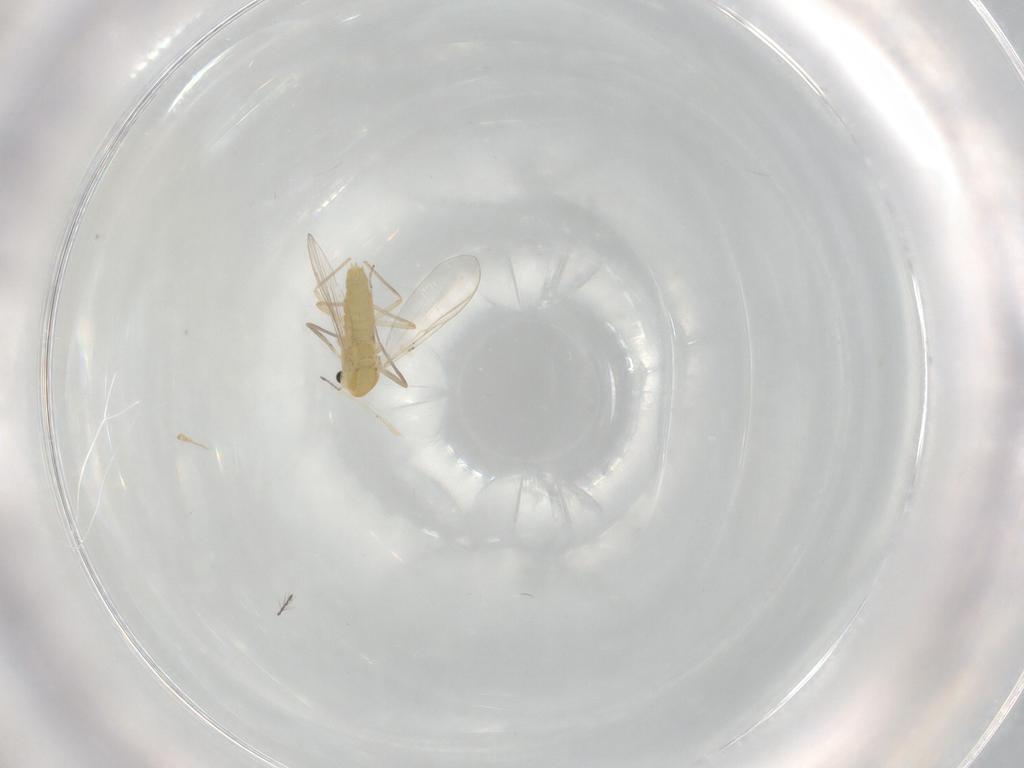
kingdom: Animalia
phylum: Arthropoda
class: Insecta
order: Diptera
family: Chironomidae
